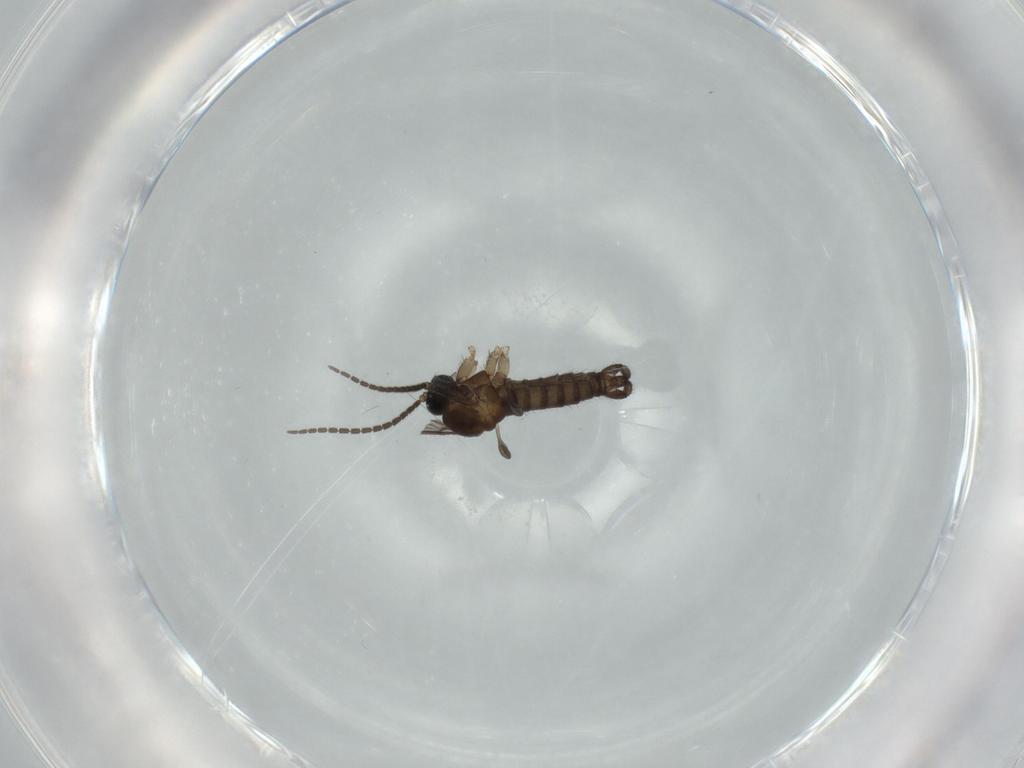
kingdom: Animalia
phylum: Arthropoda
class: Insecta
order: Diptera
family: Sciaridae
